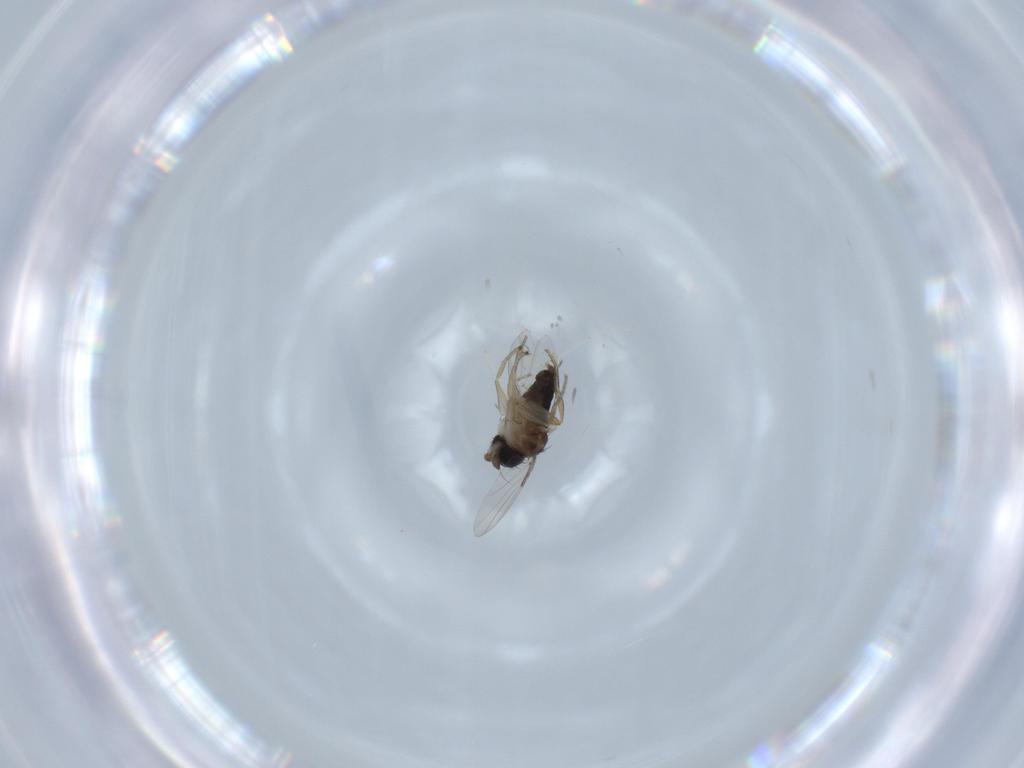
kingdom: Animalia
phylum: Arthropoda
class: Insecta
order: Diptera
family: Phoridae
